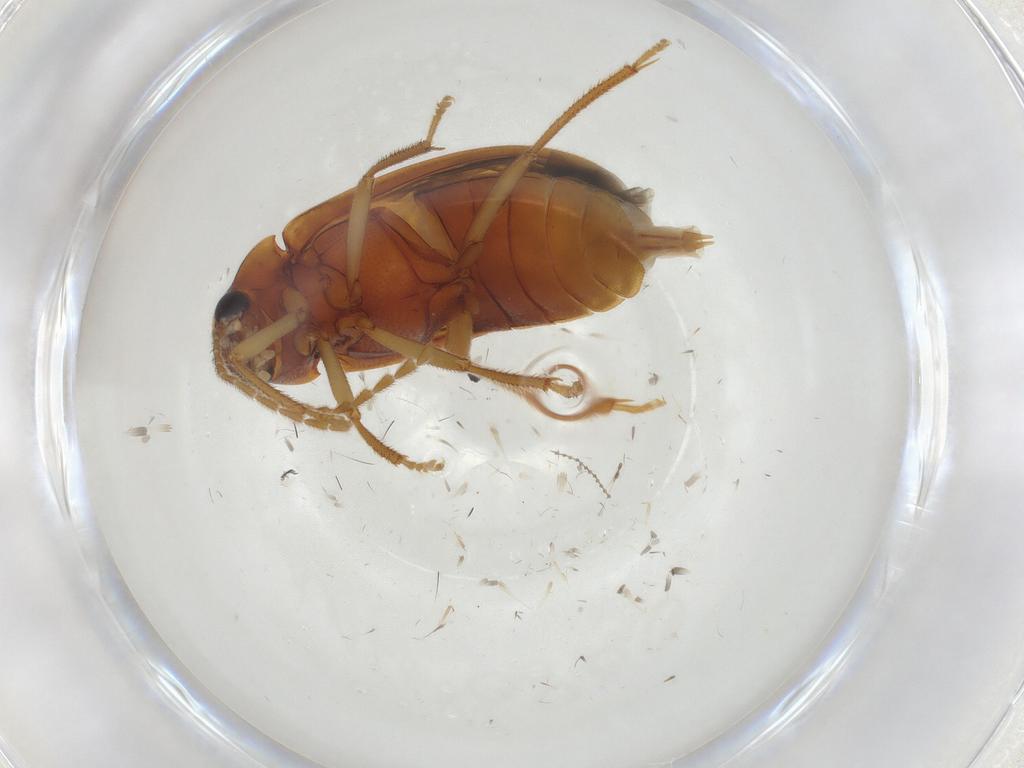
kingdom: Animalia
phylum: Arthropoda
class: Insecta
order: Coleoptera
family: Ptilodactylidae
